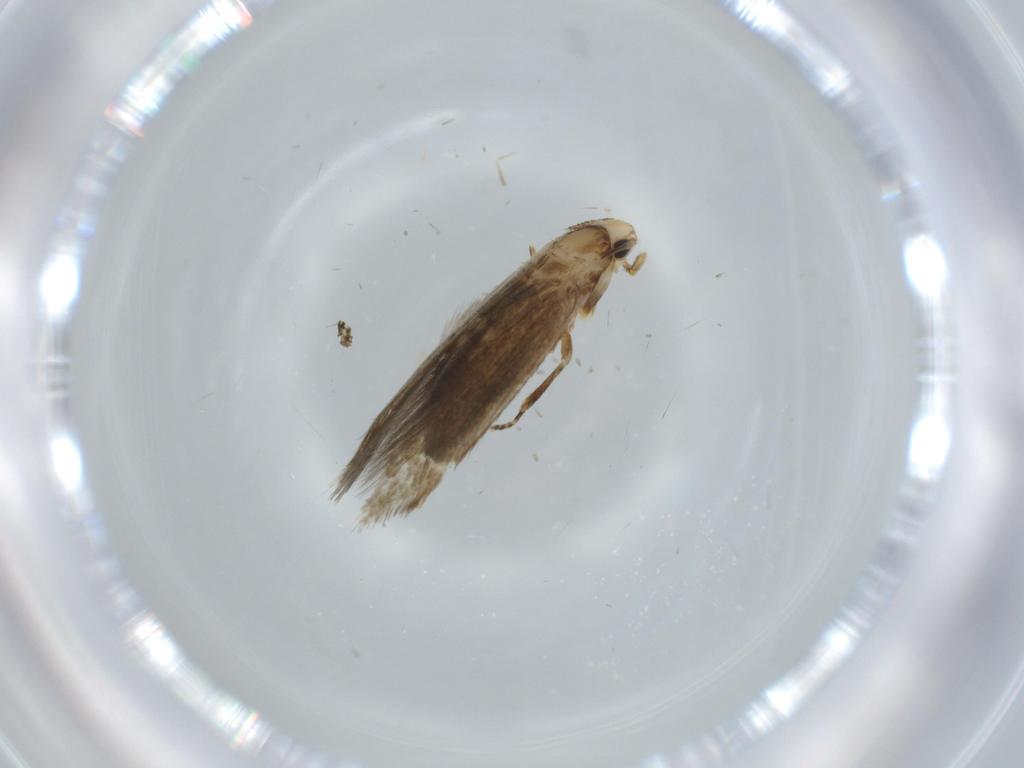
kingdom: Animalia
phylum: Arthropoda
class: Insecta
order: Lepidoptera
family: Tineidae
